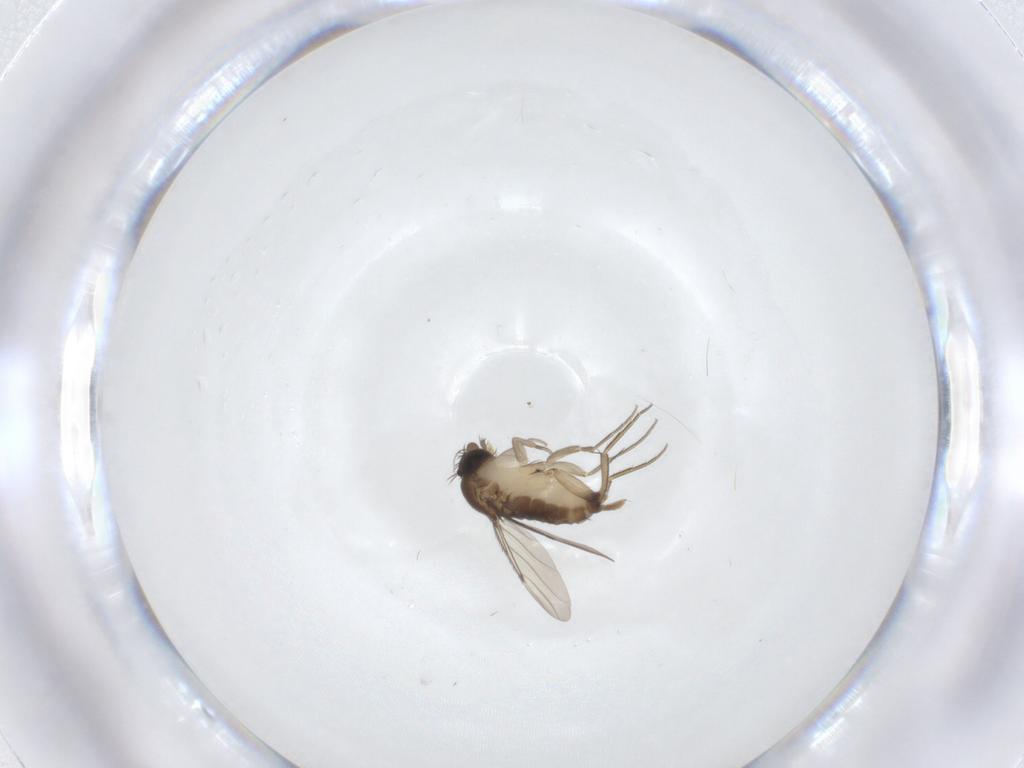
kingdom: Animalia
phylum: Arthropoda
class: Insecta
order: Diptera
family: Phoridae
